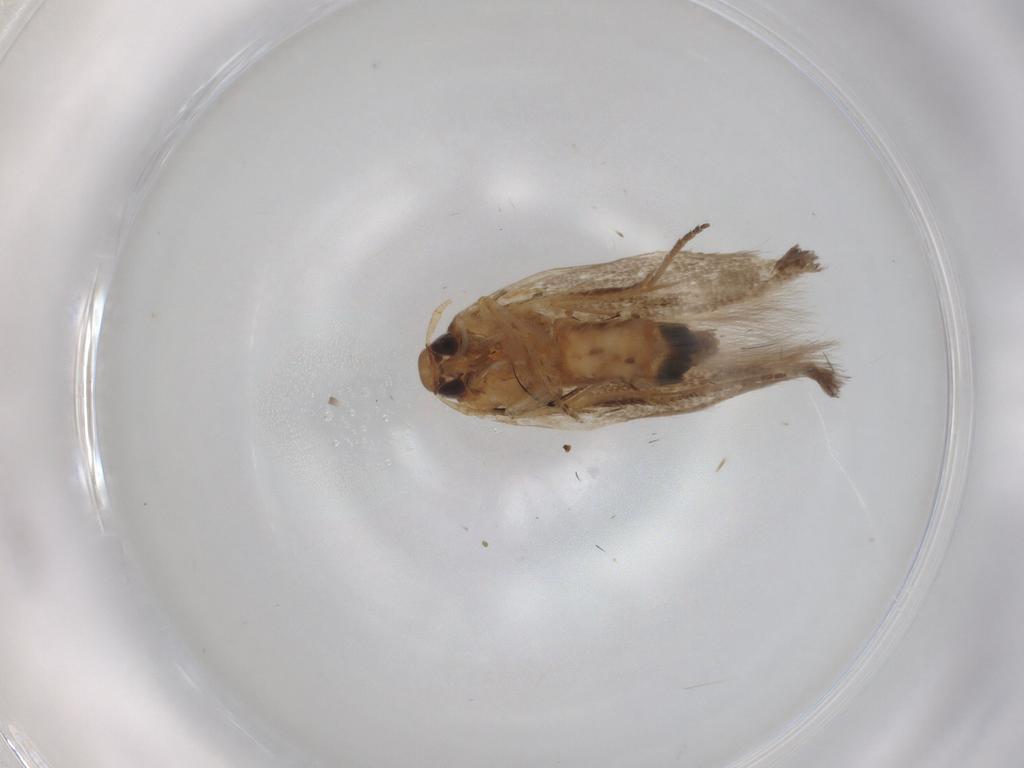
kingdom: Animalia
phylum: Arthropoda
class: Insecta
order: Lepidoptera
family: Cosmopterigidae
